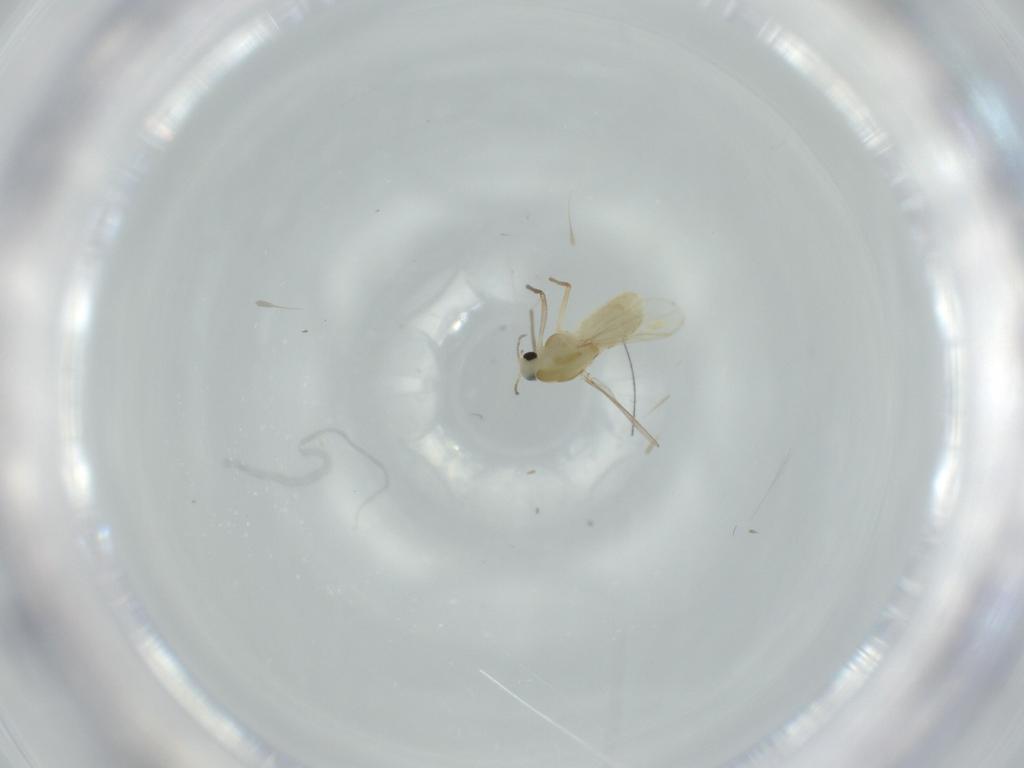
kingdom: Animalia
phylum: Arthropoda
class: Insecta
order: Diptera
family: Chironomidae
